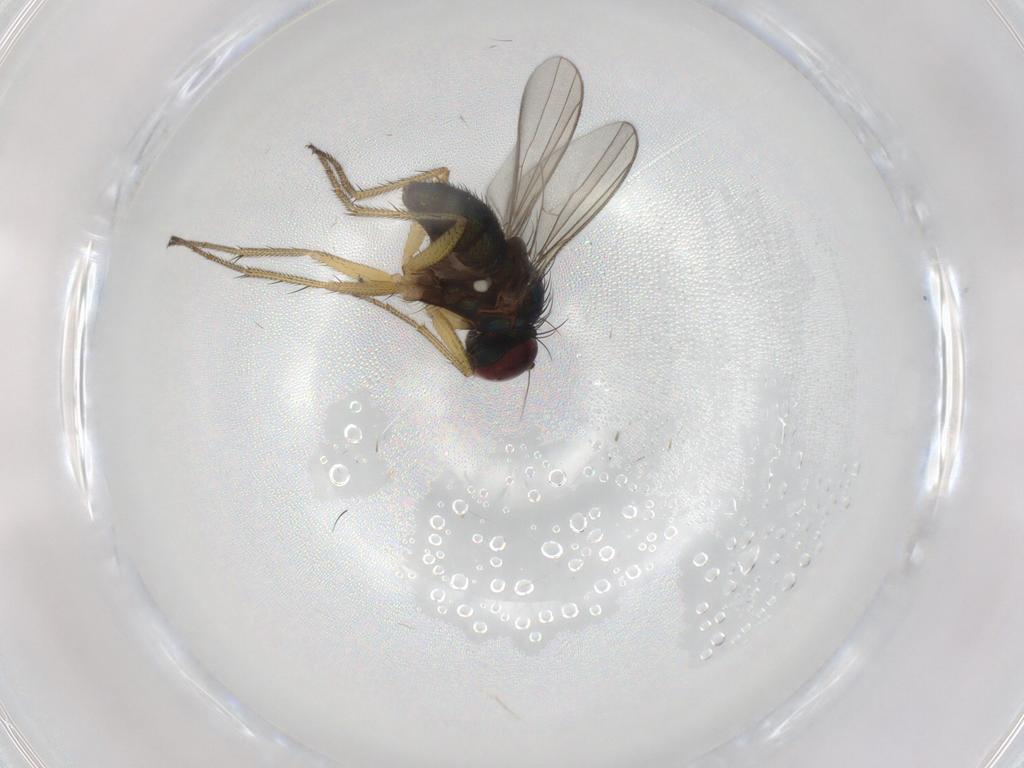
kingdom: Animalia
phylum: Arthropoda
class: Insecta
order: Diptera
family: Dolichopodidae
